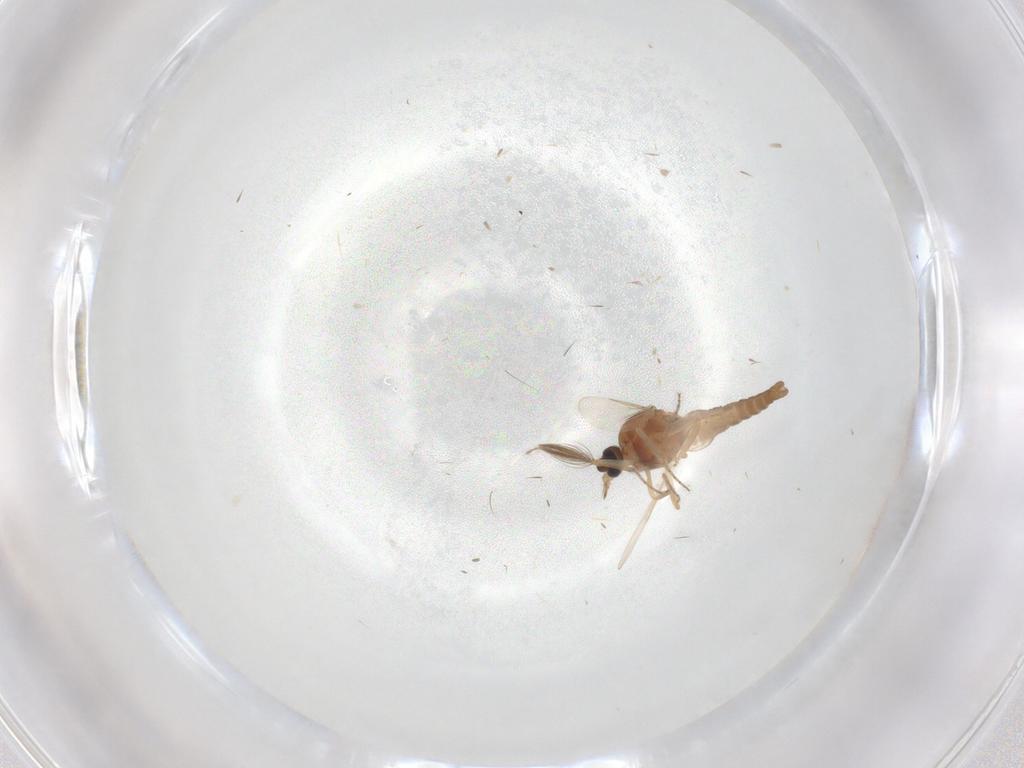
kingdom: Animalia
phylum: Arthropoda
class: Insecta
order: Diptera
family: Ceratopogonidae
